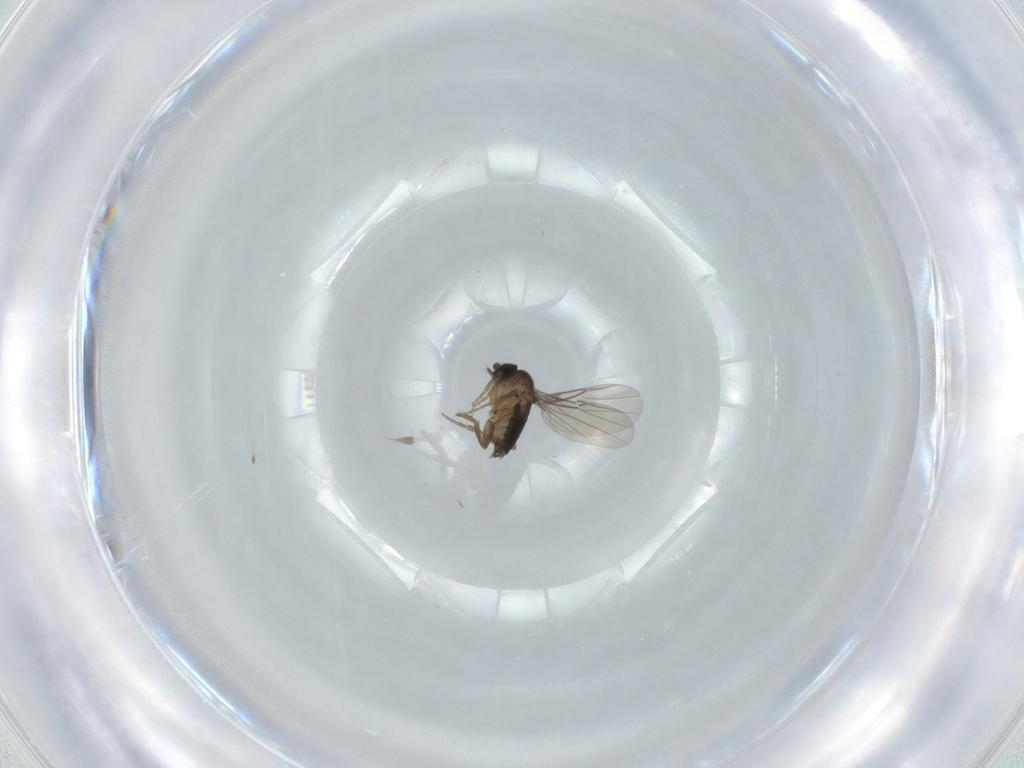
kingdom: Animalia
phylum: Arthropoda
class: Insecta
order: Diptera
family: Phoridae
